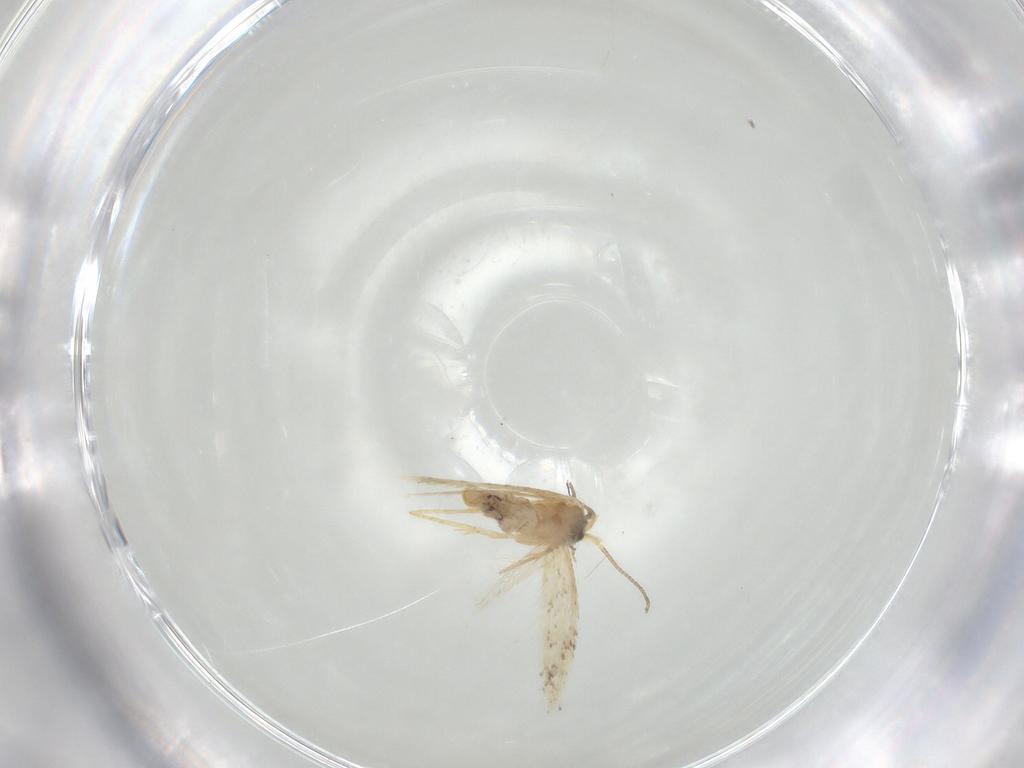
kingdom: Animalia
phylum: Arthropoda
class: Insecta
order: Lepidoptera
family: Nepticulidae
